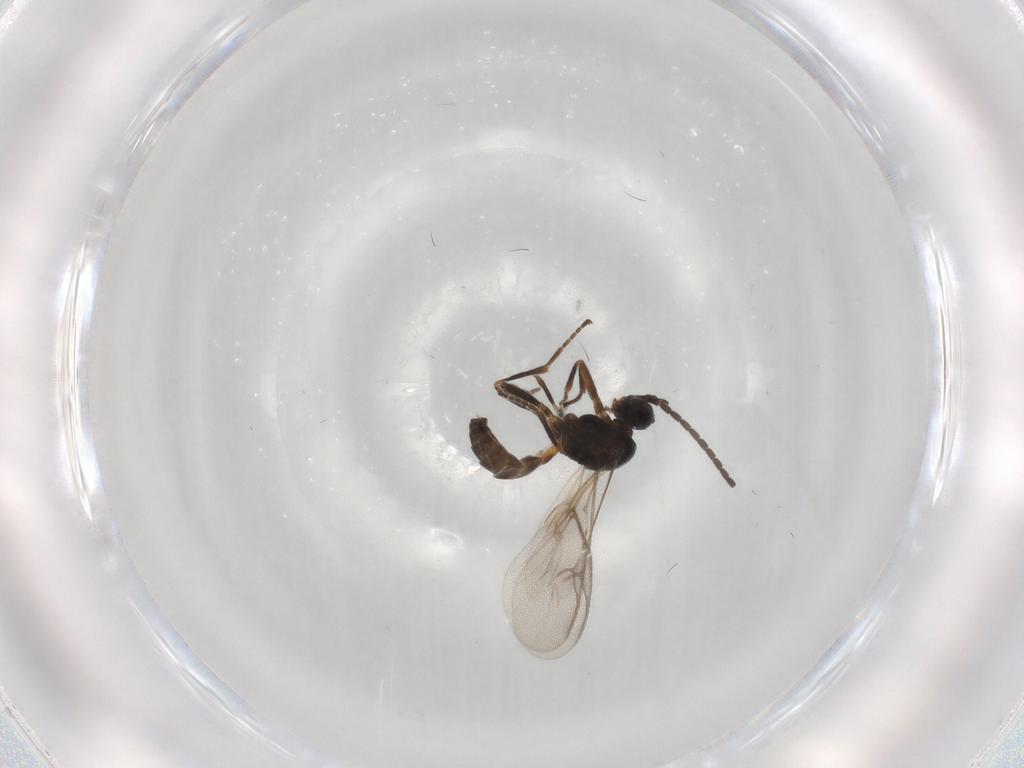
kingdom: Animalia
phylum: Arthropoda
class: Insecta
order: Hymenoptera
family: Braconidae
